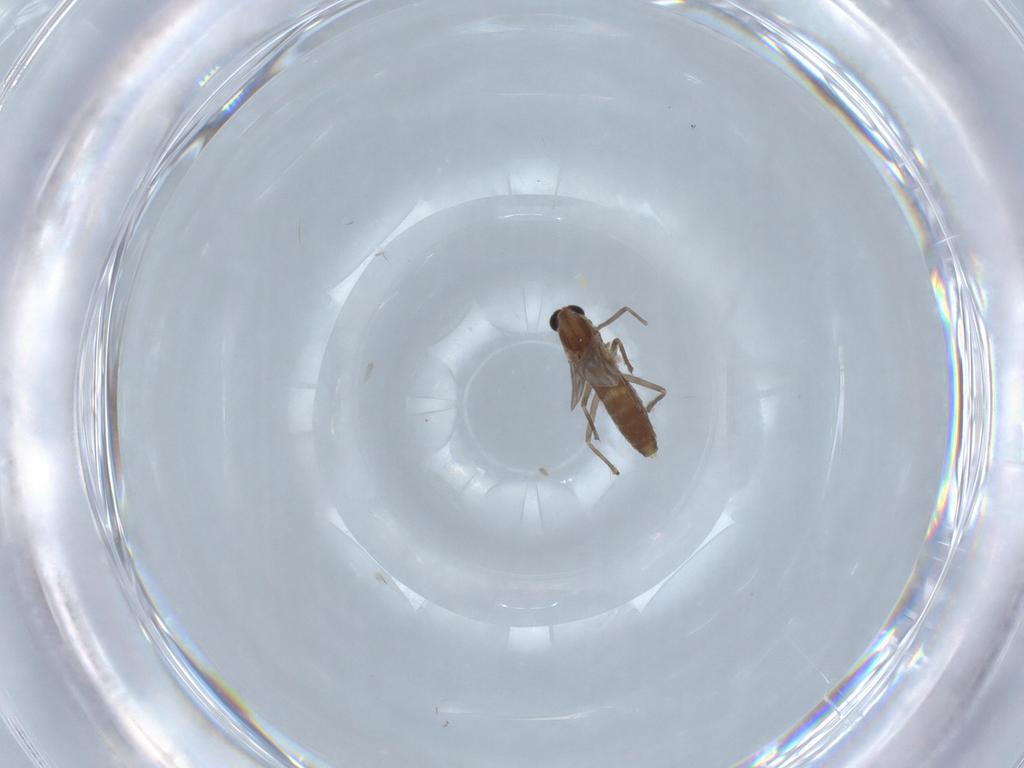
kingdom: Animalia
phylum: Arthropoda
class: Insecta
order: Diptera
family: Chironomidae
